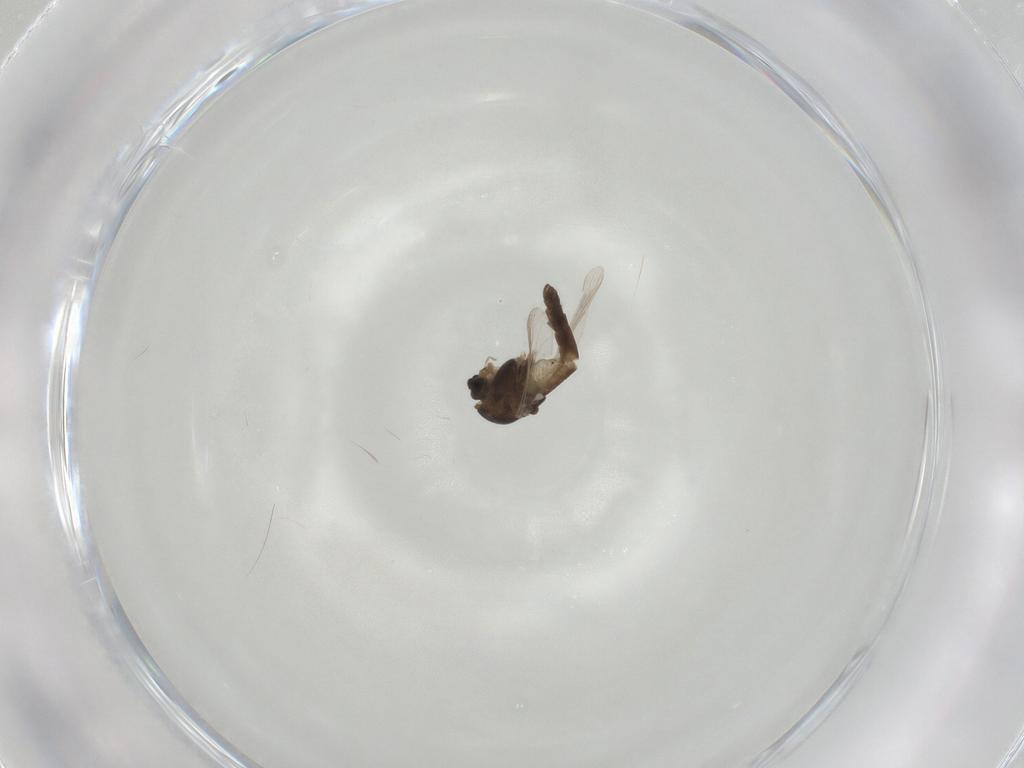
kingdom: Animalia
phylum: Arthropoda
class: Insecta
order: Diptera
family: Chironomidae
